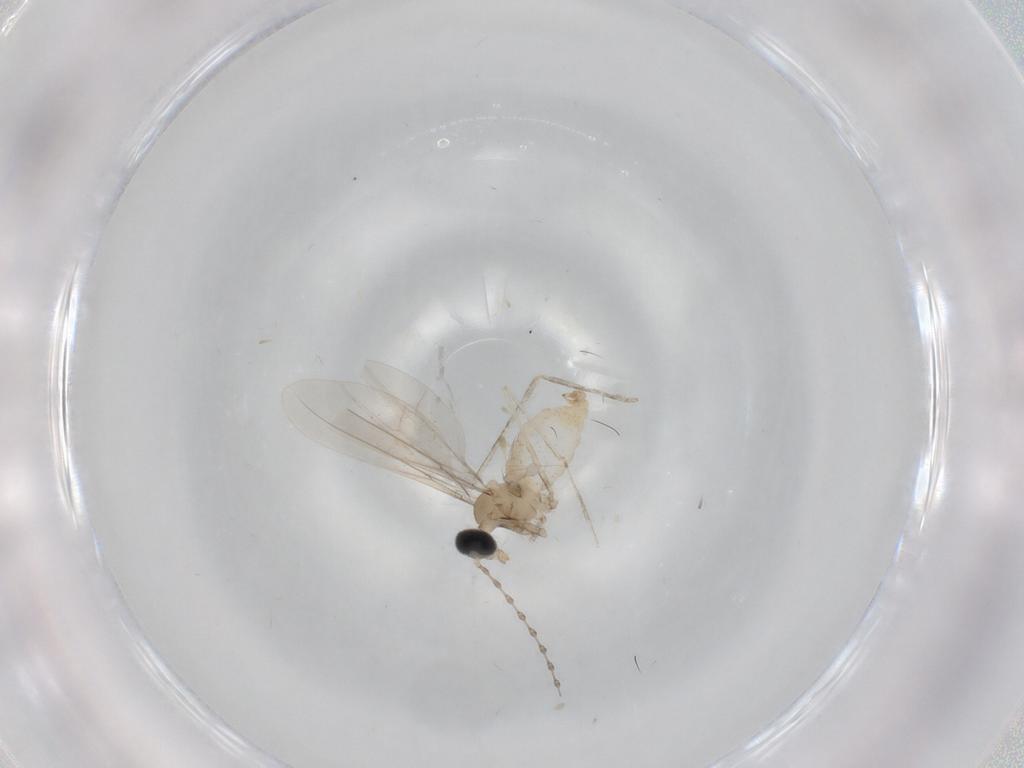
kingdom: Animalia
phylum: Arthropoda
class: Insecta
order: Diptera
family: Cecidomyiidae
